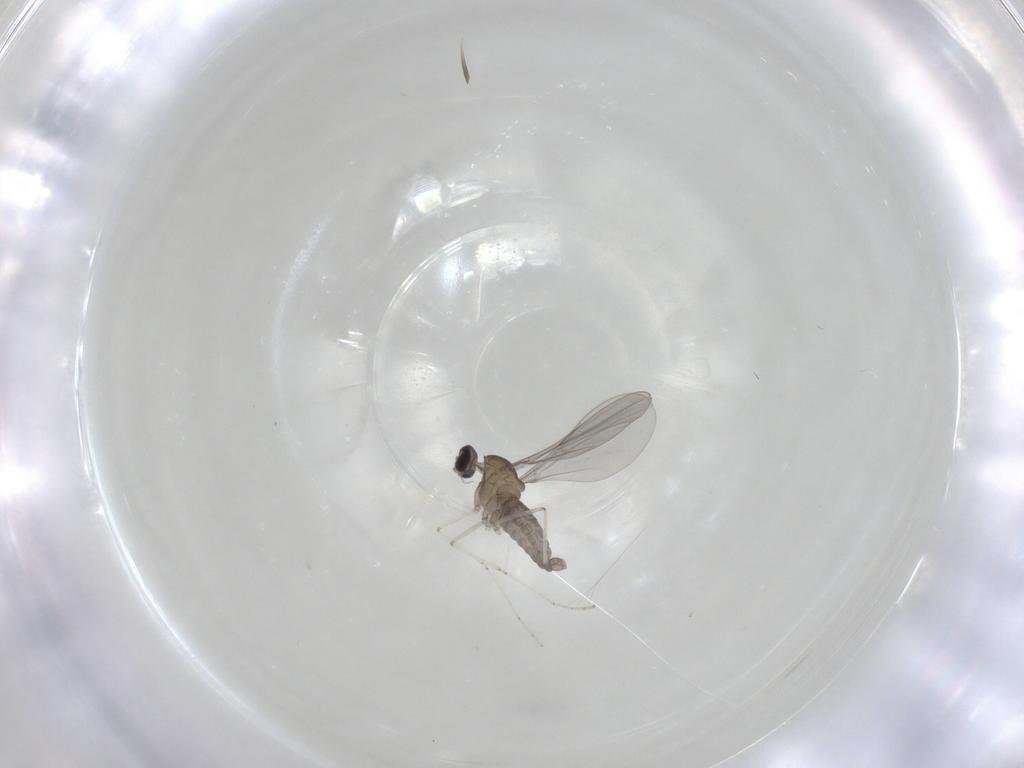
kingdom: Animalia
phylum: Arthropoda
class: Insecta
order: Diptera
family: Cecidomyiidae
